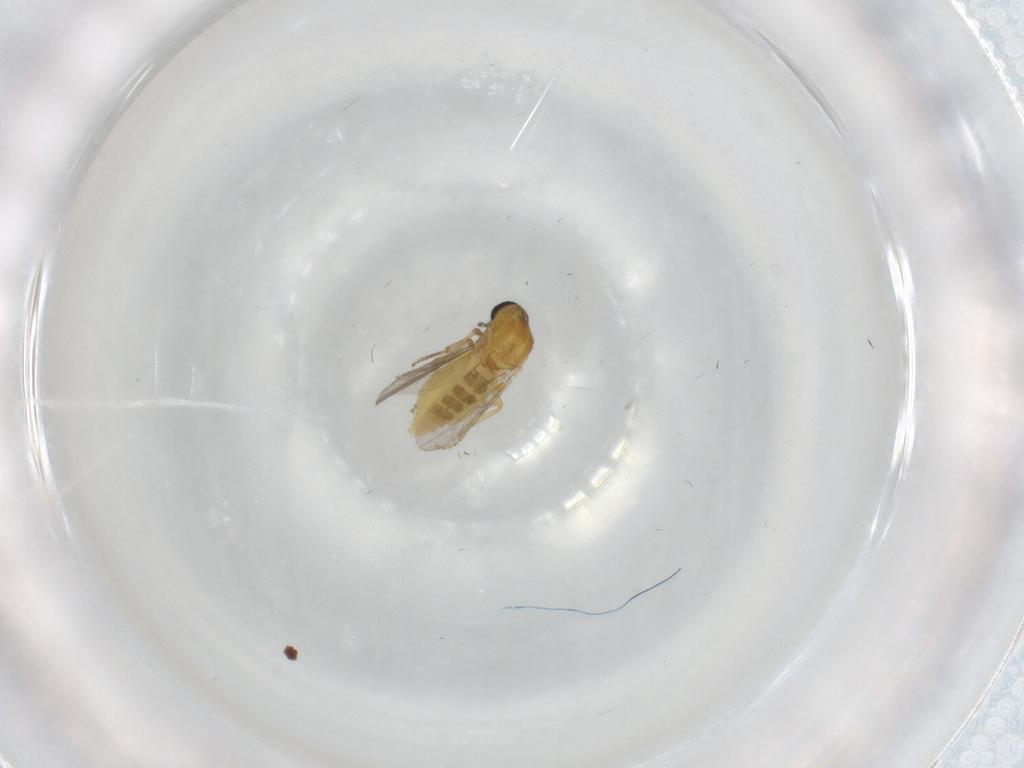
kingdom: Animalia
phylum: Arthropoda
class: Insecta
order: Diptera
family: Ceratopogonidae
